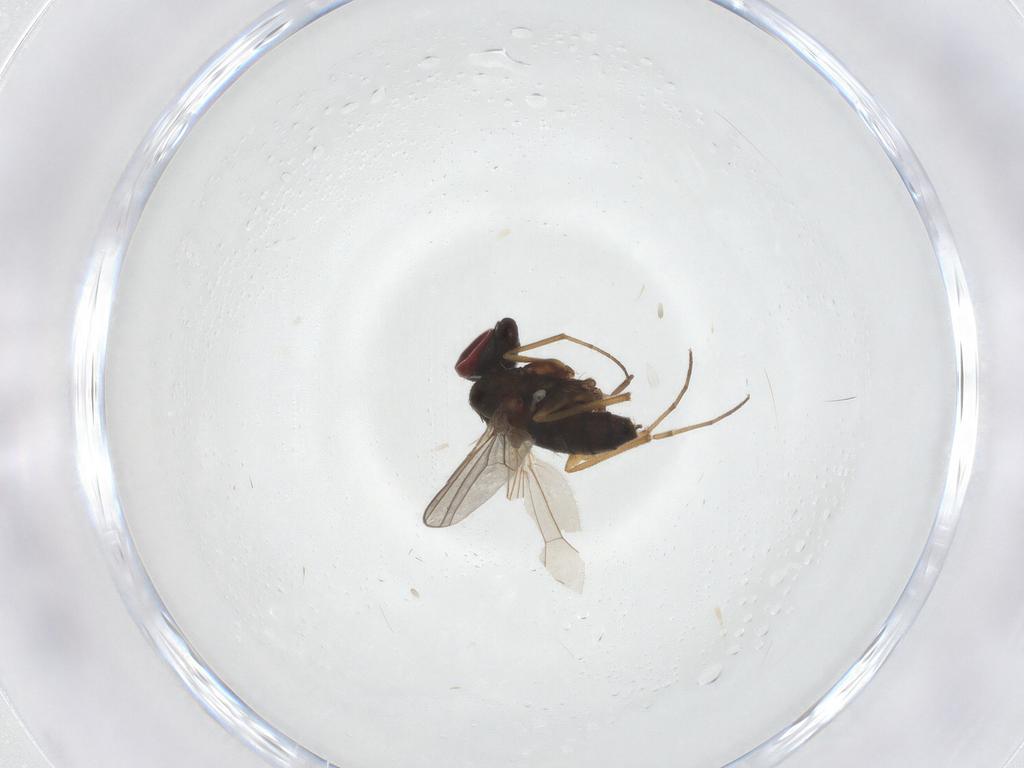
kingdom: Animalia
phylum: Arthropoda
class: Insecta
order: Diptera
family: Dolichopodidae
